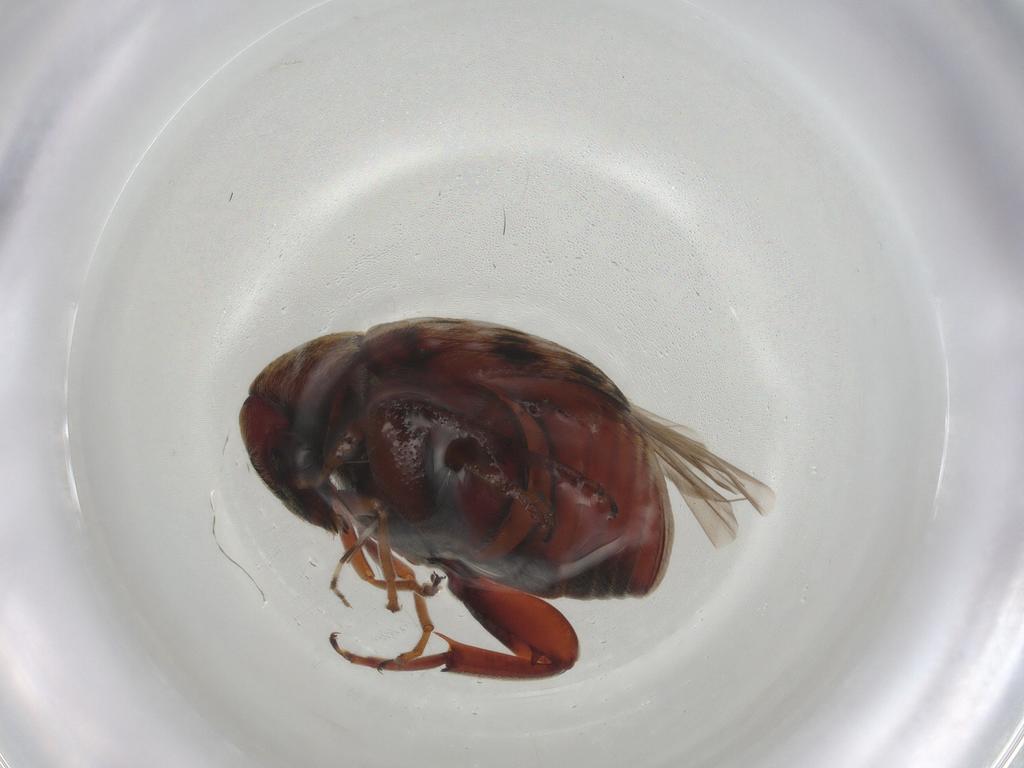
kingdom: Animalia
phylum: Arthropoda
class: Insecta
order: Coleoptera
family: Chrysomelidae
